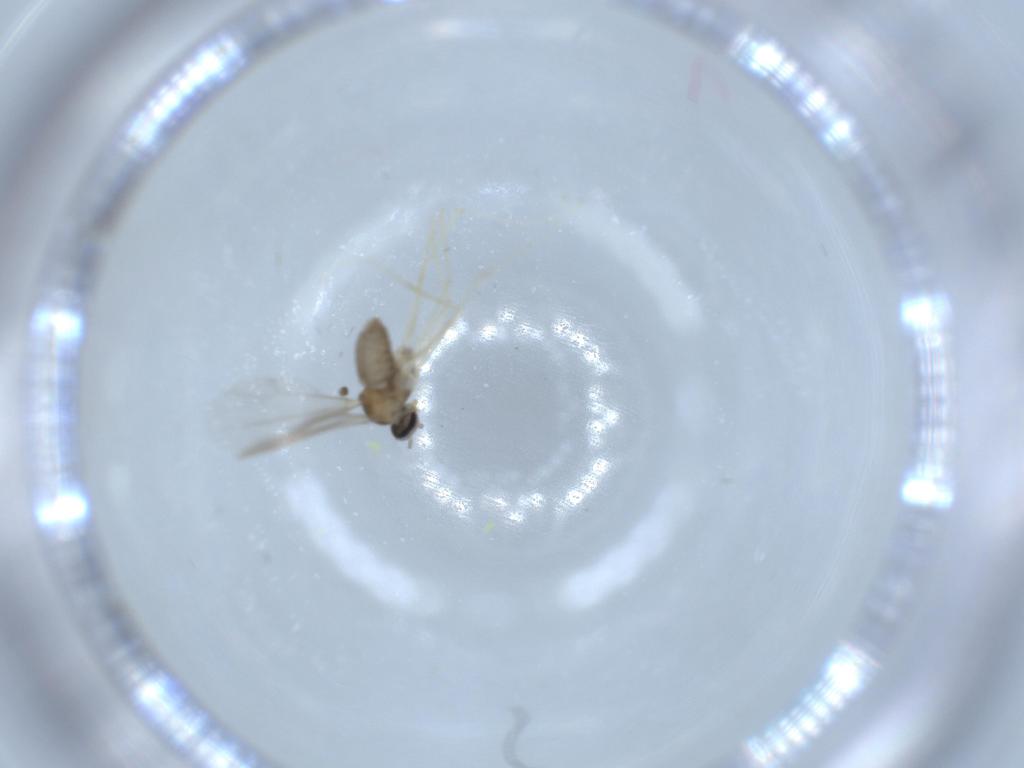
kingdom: Animalia
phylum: Arthropoda
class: Insecta
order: Diptera
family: Cecidomyiidae
